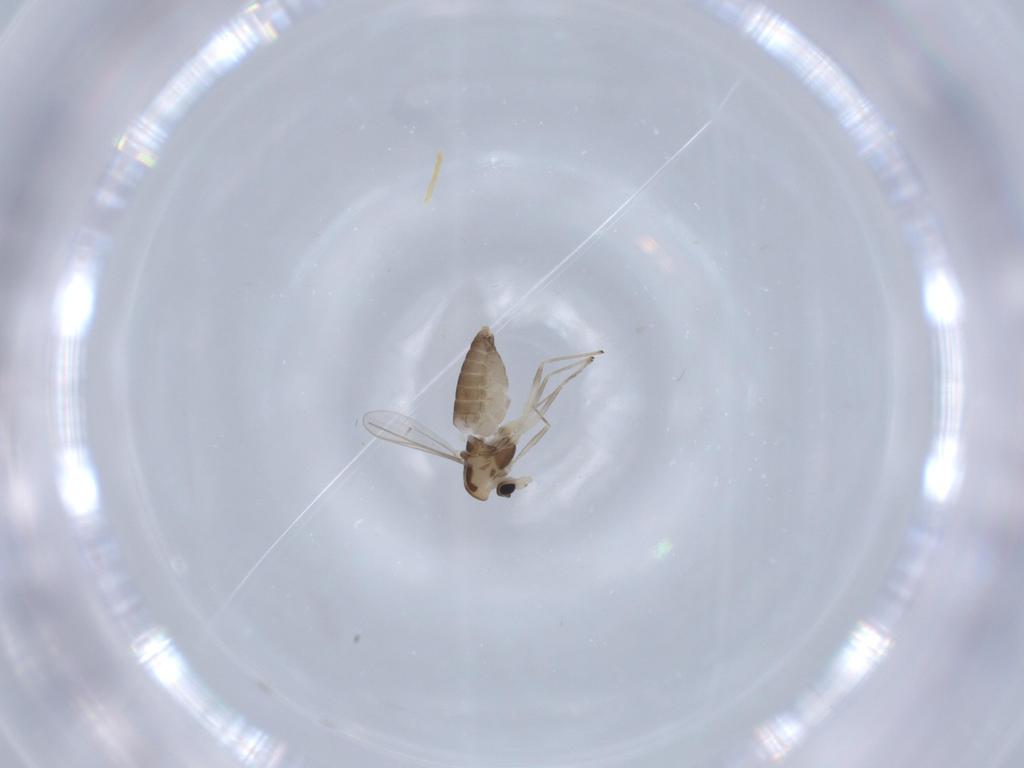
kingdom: Animalia
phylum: Arthropoda
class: Insecta
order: Diptera
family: Chironomidae
